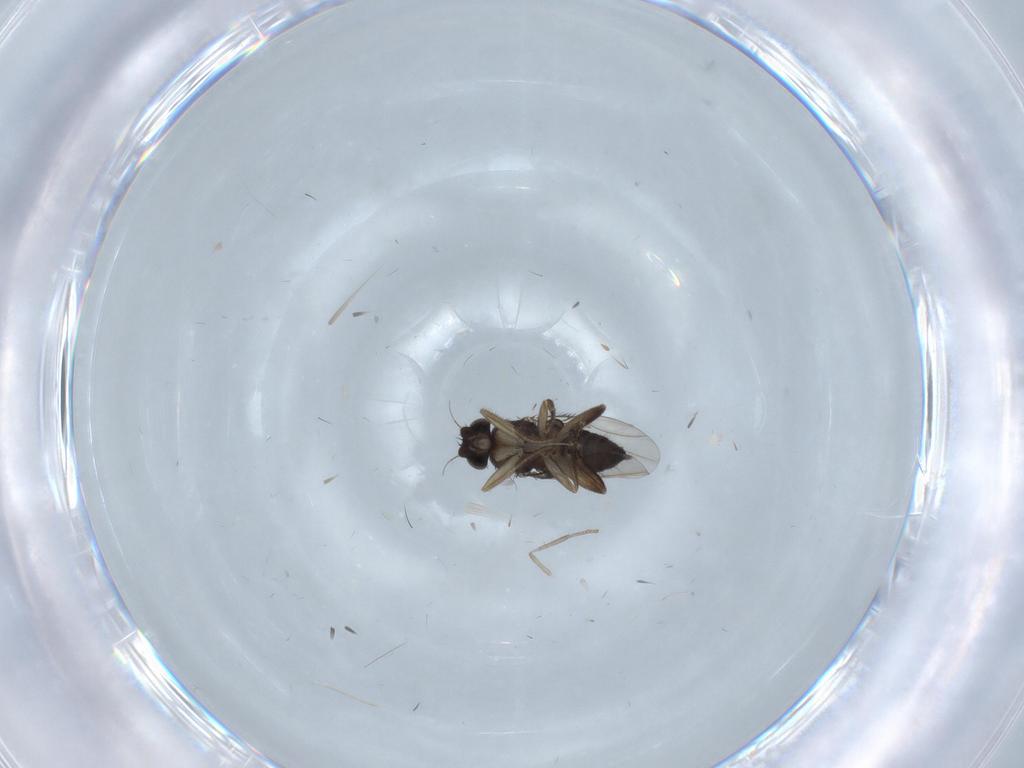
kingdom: Animalia
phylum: Arthropoda
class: Insecta
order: Diptera
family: Phoridae
